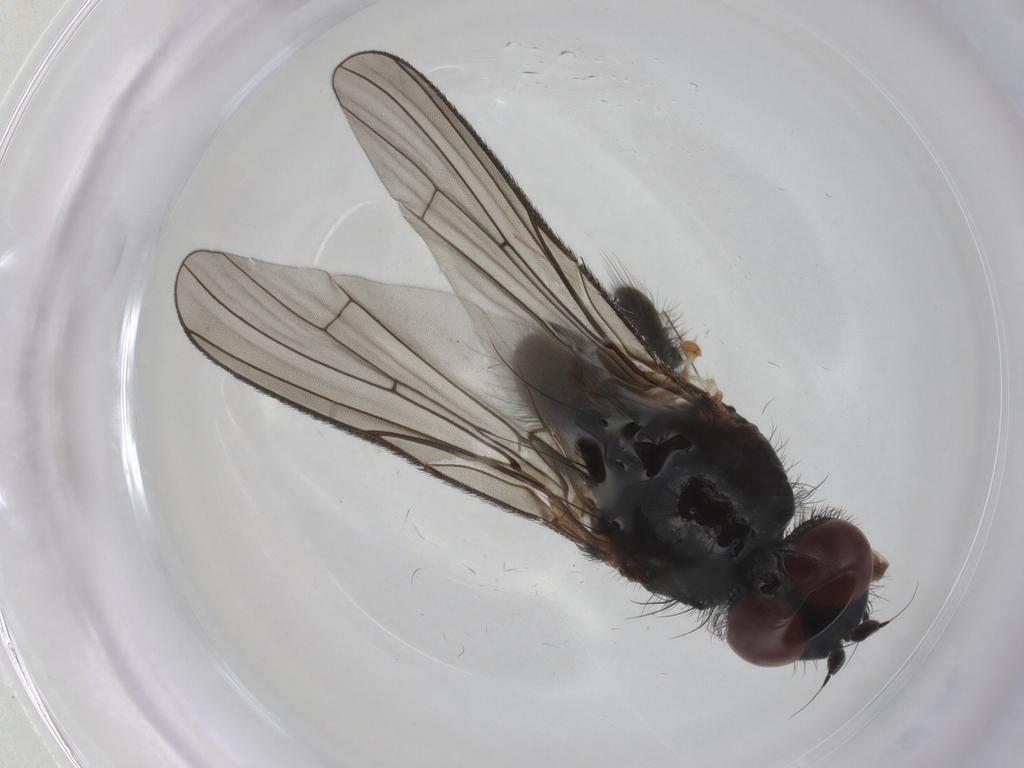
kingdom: Animalia
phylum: Arthropoda
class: Insecta
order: Diptera
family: Anthomyiidae
